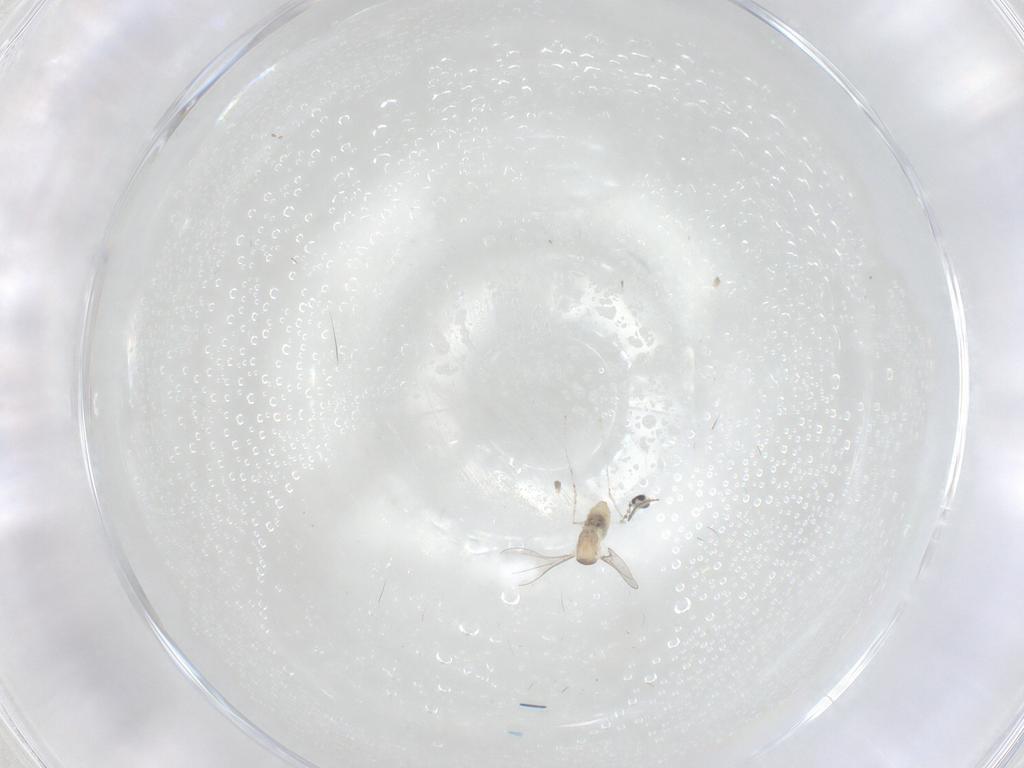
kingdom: Animalia
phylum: Arthropoda
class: Insecta
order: Diptera
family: Cecidomyiidae
